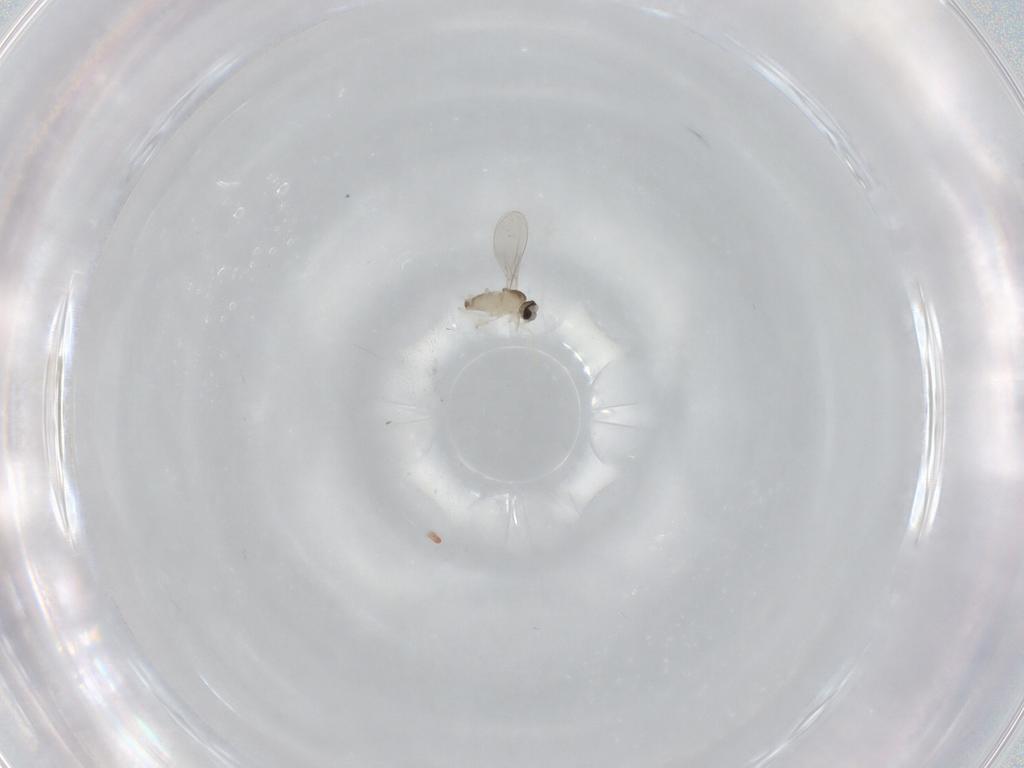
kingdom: Animalia
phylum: Arthropoda
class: Insecta
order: Diptera
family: Chironomidae
